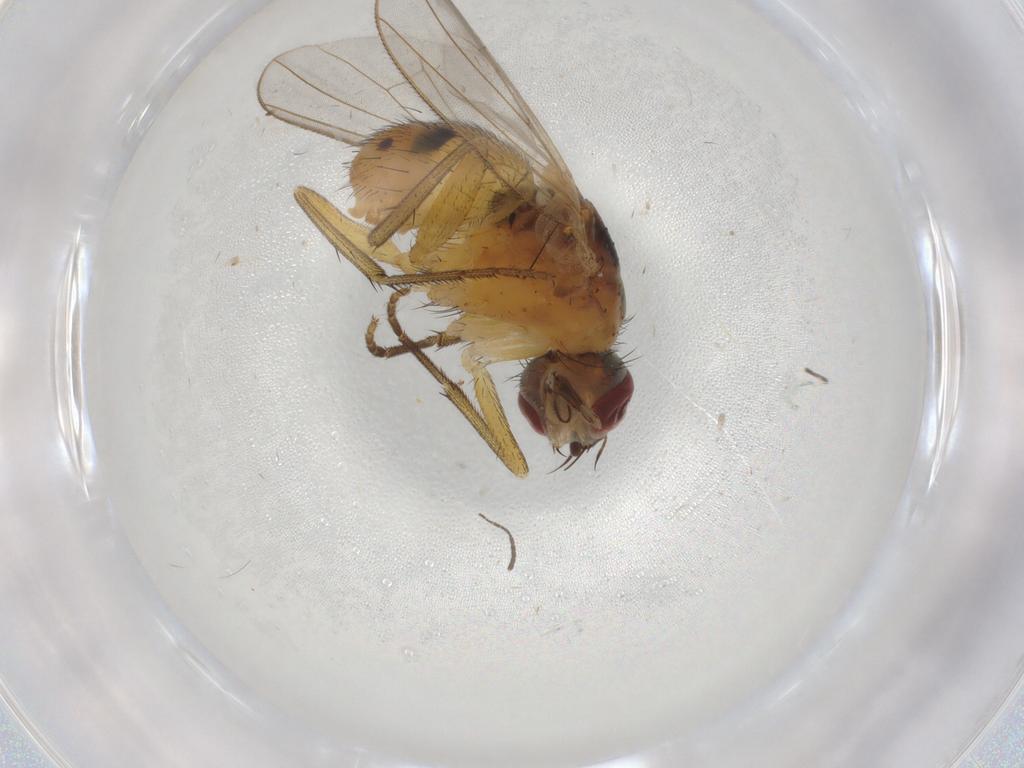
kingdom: Animalia
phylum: Arthropoda
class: Insecta
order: Diptera
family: Muscidae
